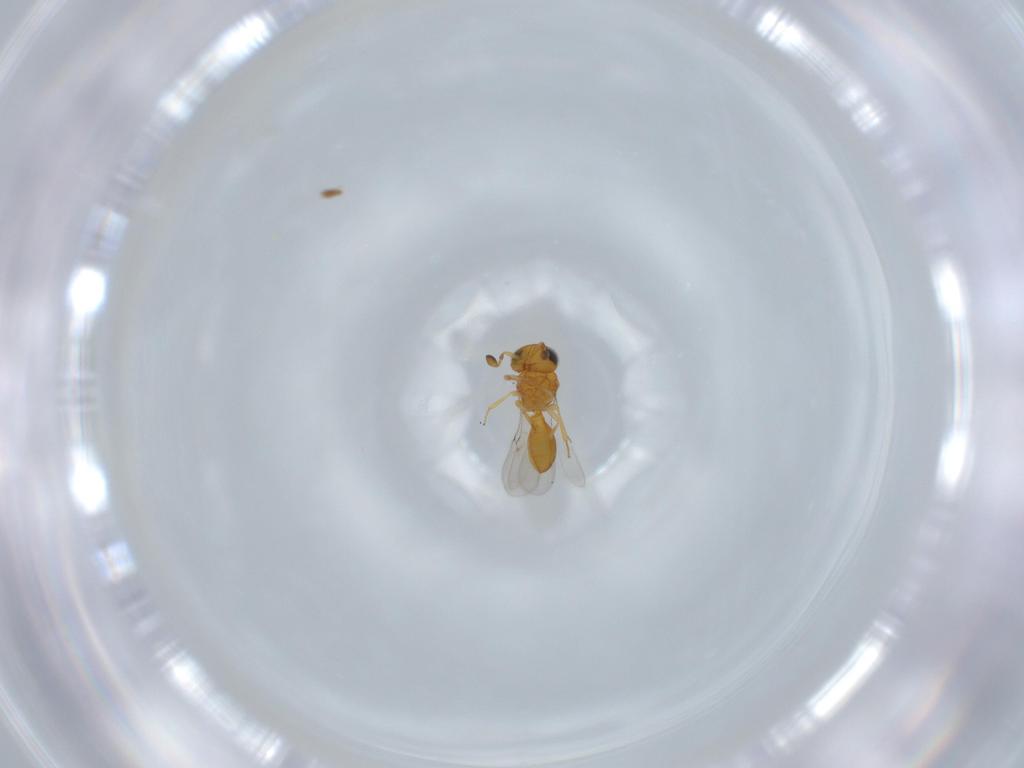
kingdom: Animalia
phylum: Arthropoda
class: Insecta
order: Hymenoptera
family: Scelionidae
